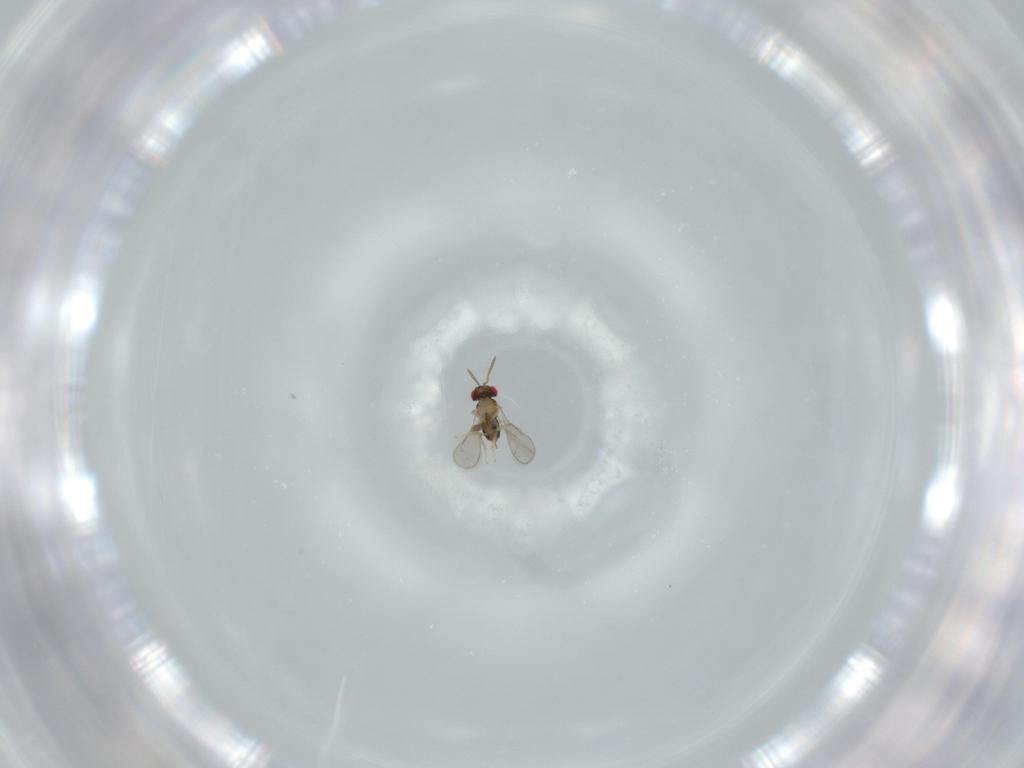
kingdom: Animalia
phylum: Arthropoda
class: Insecta
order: Hymenoptera
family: Aphelinidae
